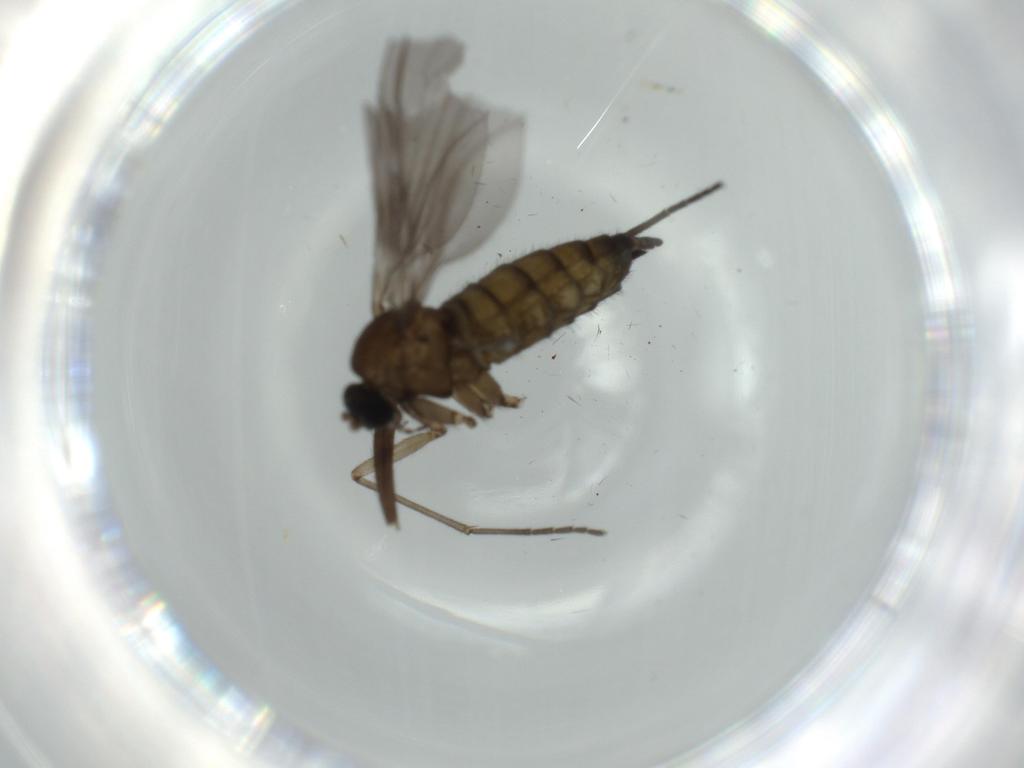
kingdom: Animalia
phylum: Arthropoda
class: Insecta
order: Diptera
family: Sciaridae
